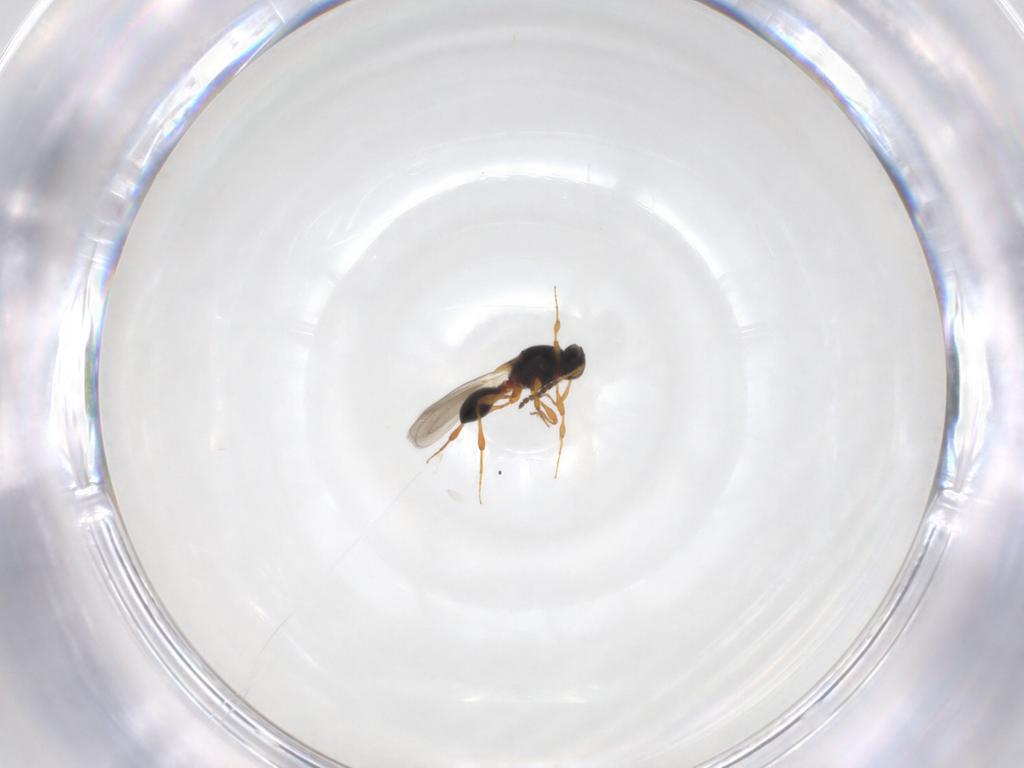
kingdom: Animalia
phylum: Arthropoda
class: Insecta
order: Hymenoptera
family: Platygastridae
